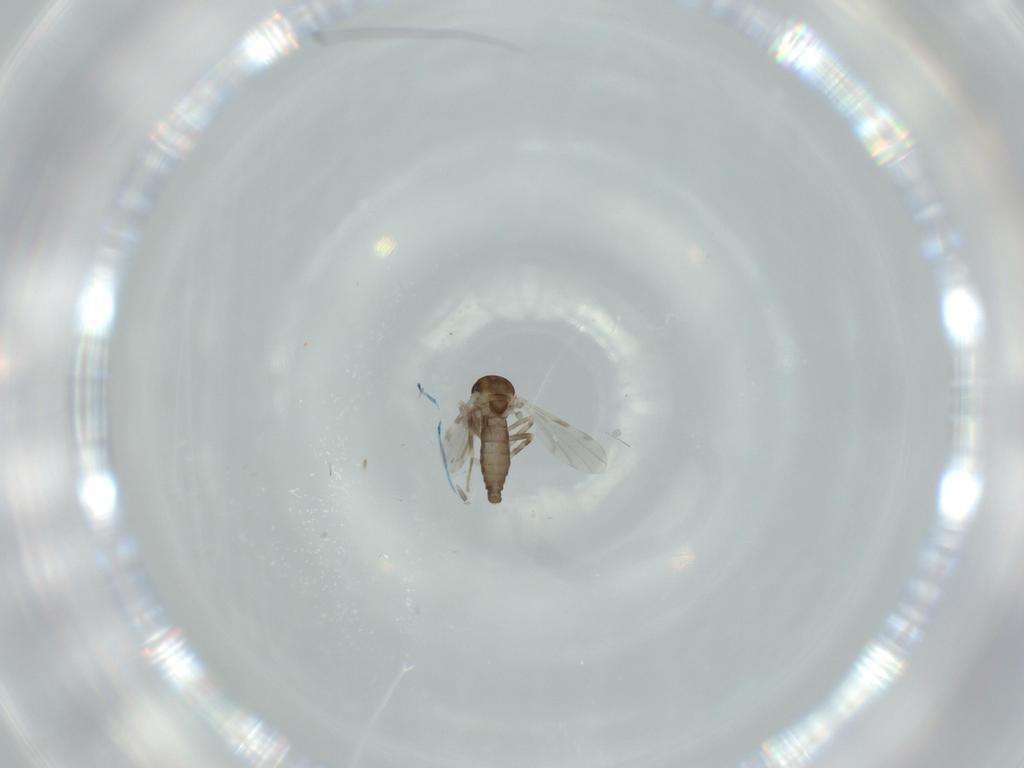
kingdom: Animalia
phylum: Arthropoda
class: Insecta
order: Diptera
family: Ceratopogonidae
